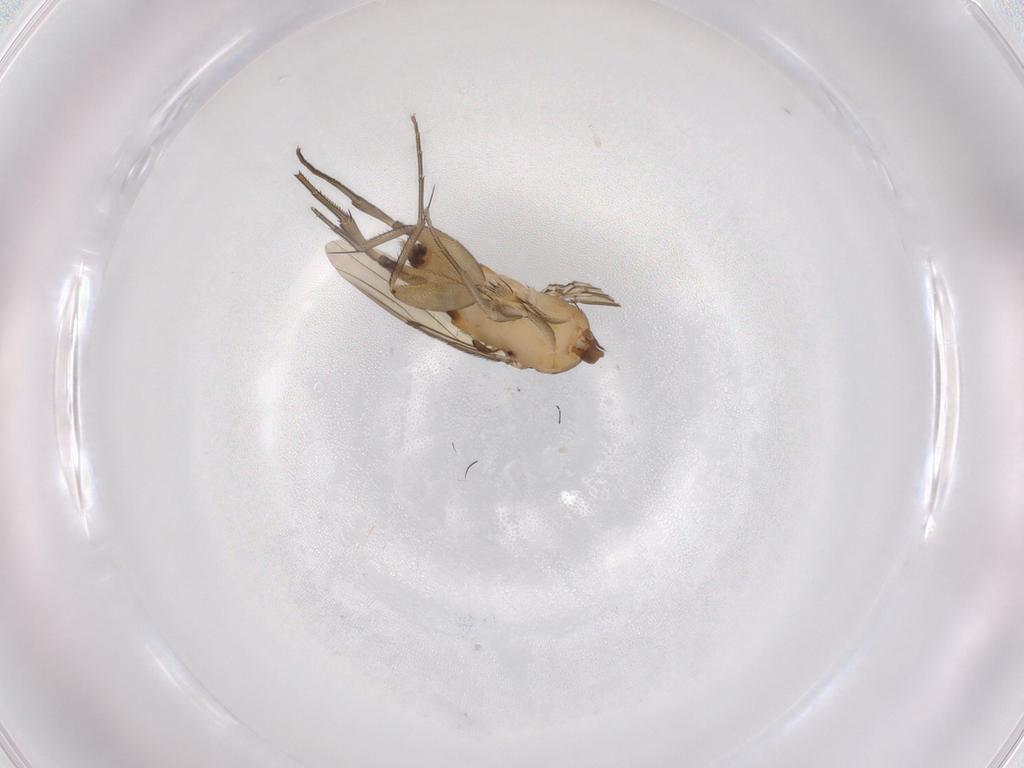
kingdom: Animalia
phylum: Arthropoda
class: Insecta
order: Diptera
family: Phoridae
